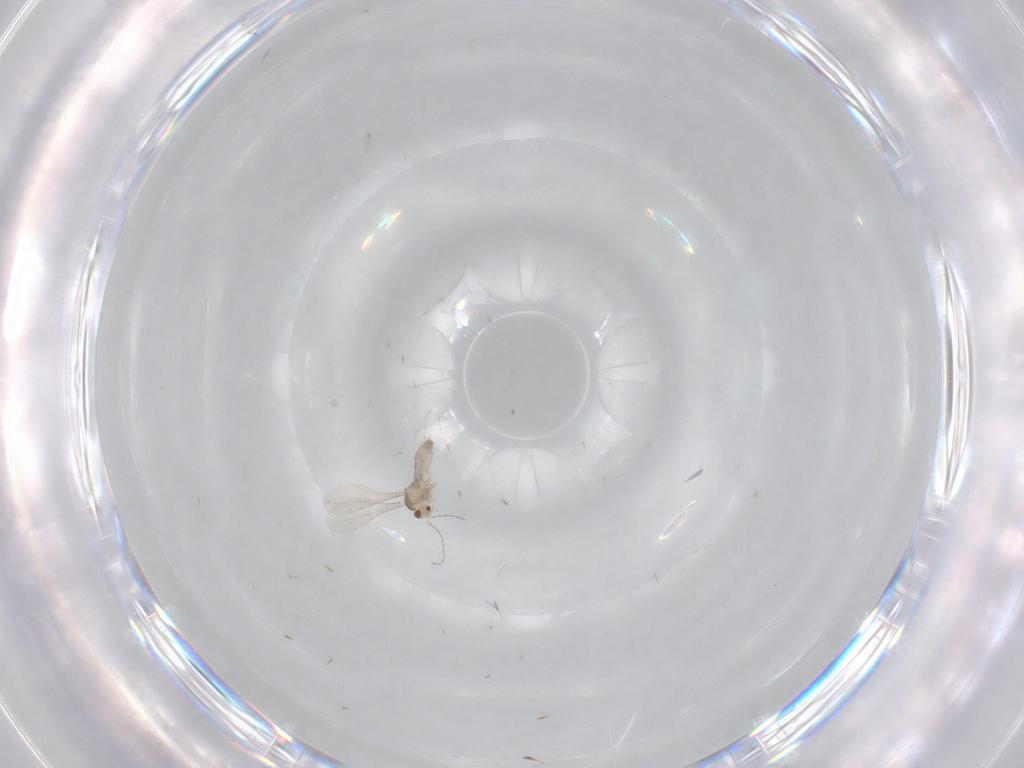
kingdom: Animalia
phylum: Arthropoda
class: Insecta
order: Diptera
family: Cecidomyiidae
